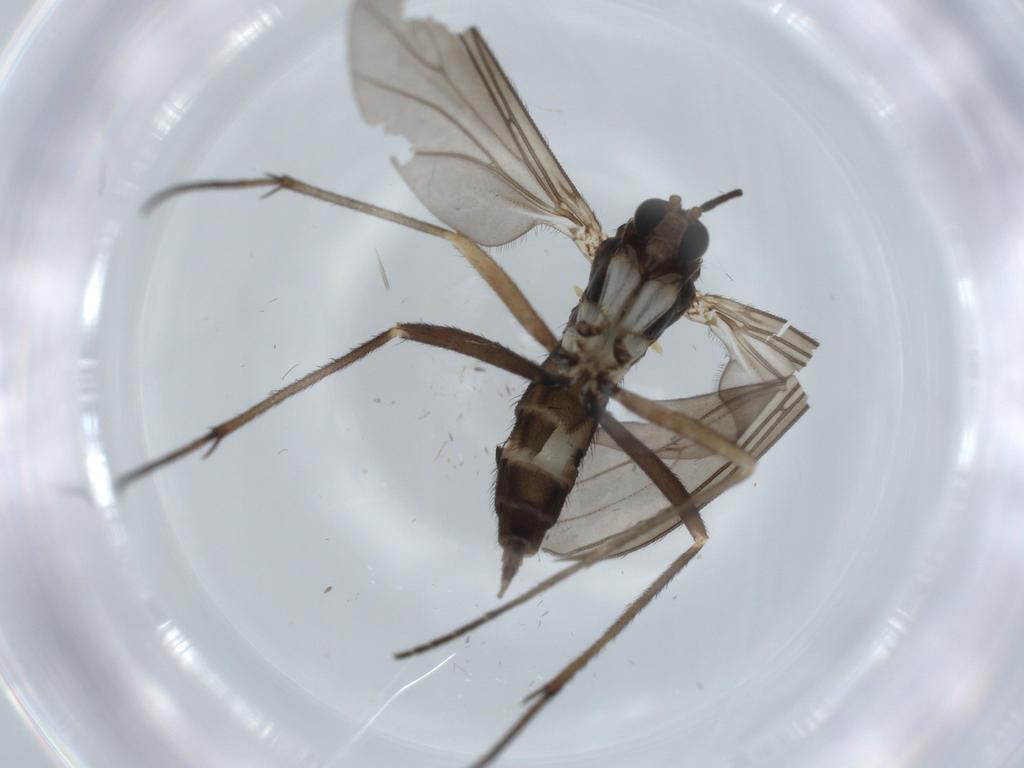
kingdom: Animalia
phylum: Arthropoda
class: Insecta
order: Diptera
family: Sciaridae
